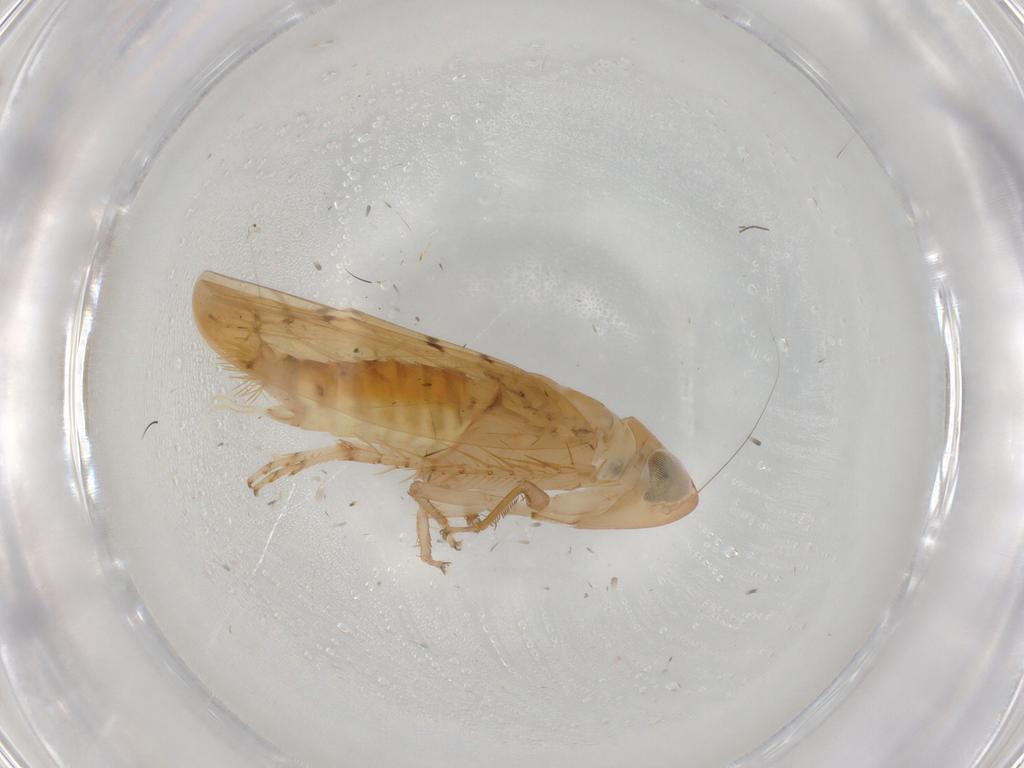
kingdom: Animalia
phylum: Arthropoda
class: Insecta
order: Hemiptera
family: Cicadellidae
